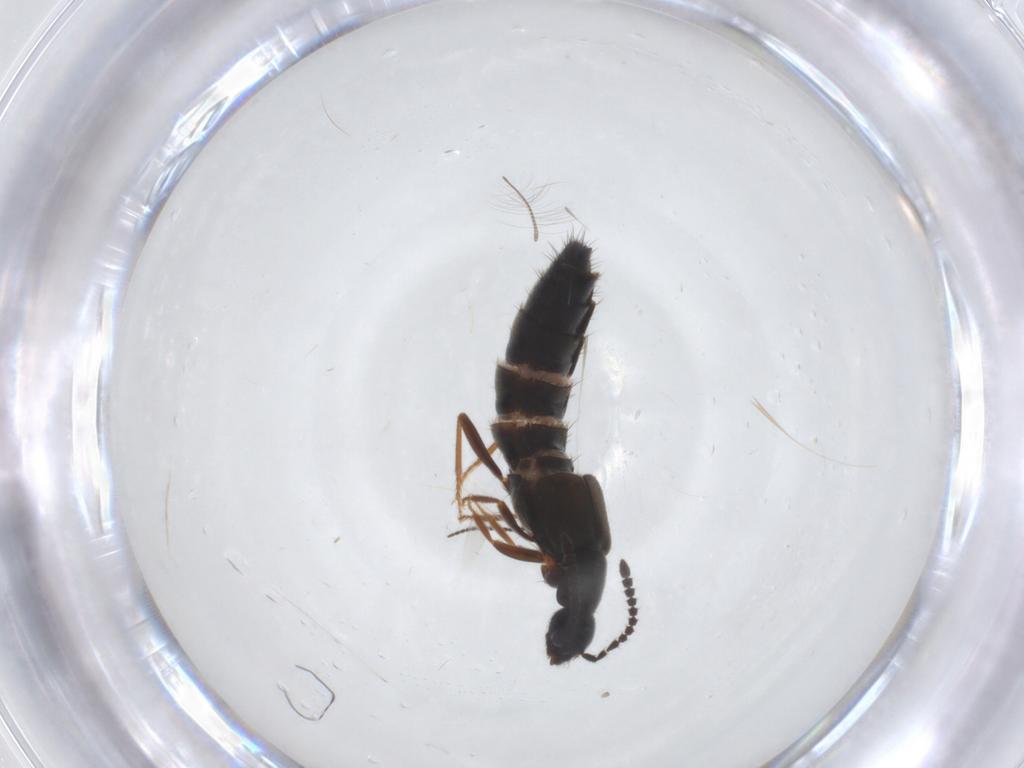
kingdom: Animalia
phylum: Arthropoda
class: Insecta
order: Coleoptera
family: Staphylinidae
